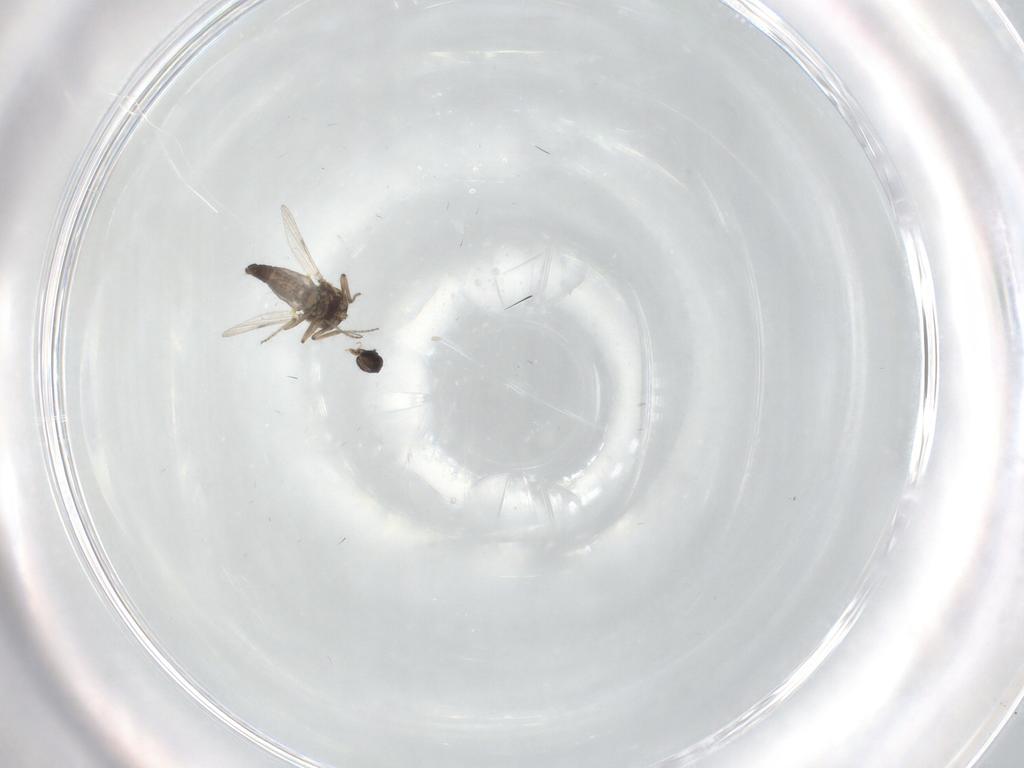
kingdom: Animalia
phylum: Arthropoda
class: Insecta
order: Diptera
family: Ceratopogonidae
